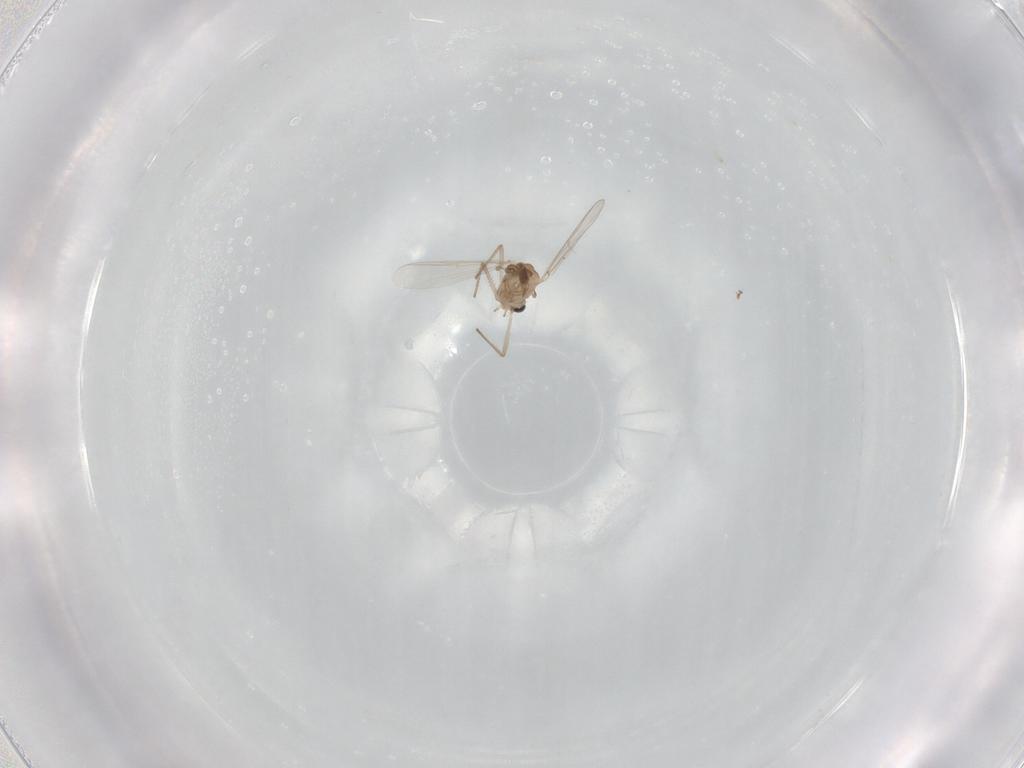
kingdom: Animalia
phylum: Arthropoda
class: Insecta
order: Diptera
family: Chironomidae
